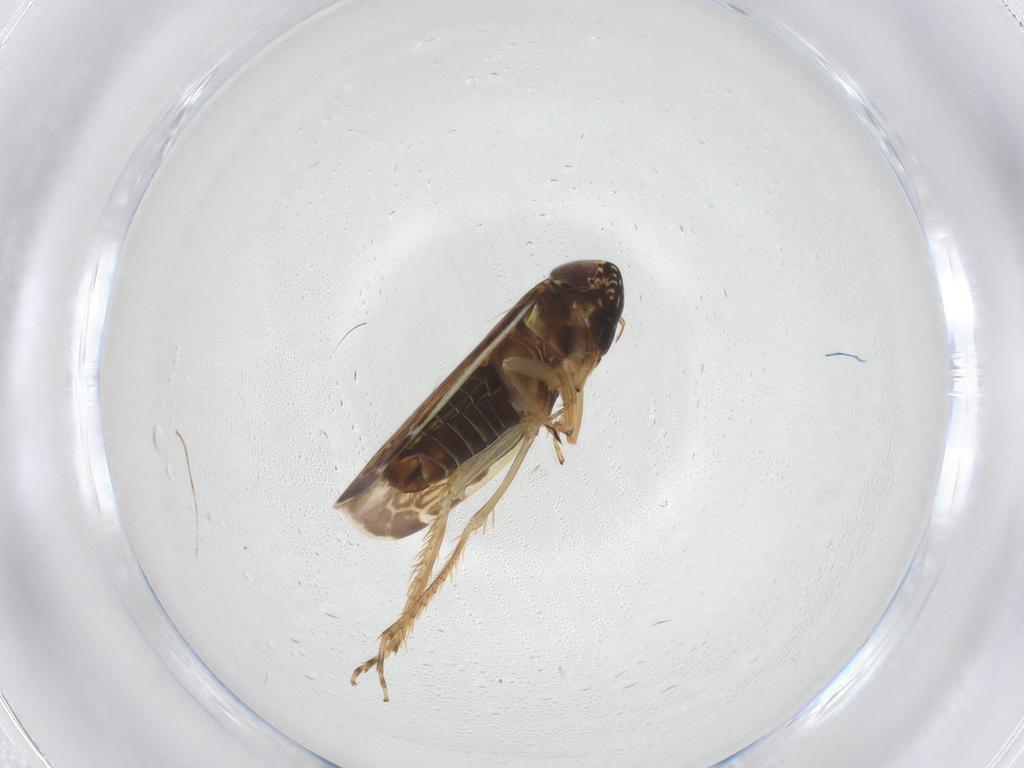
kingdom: Animalia
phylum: Arthropoda
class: Insecta
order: Hemiptera
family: Cicadellidae
